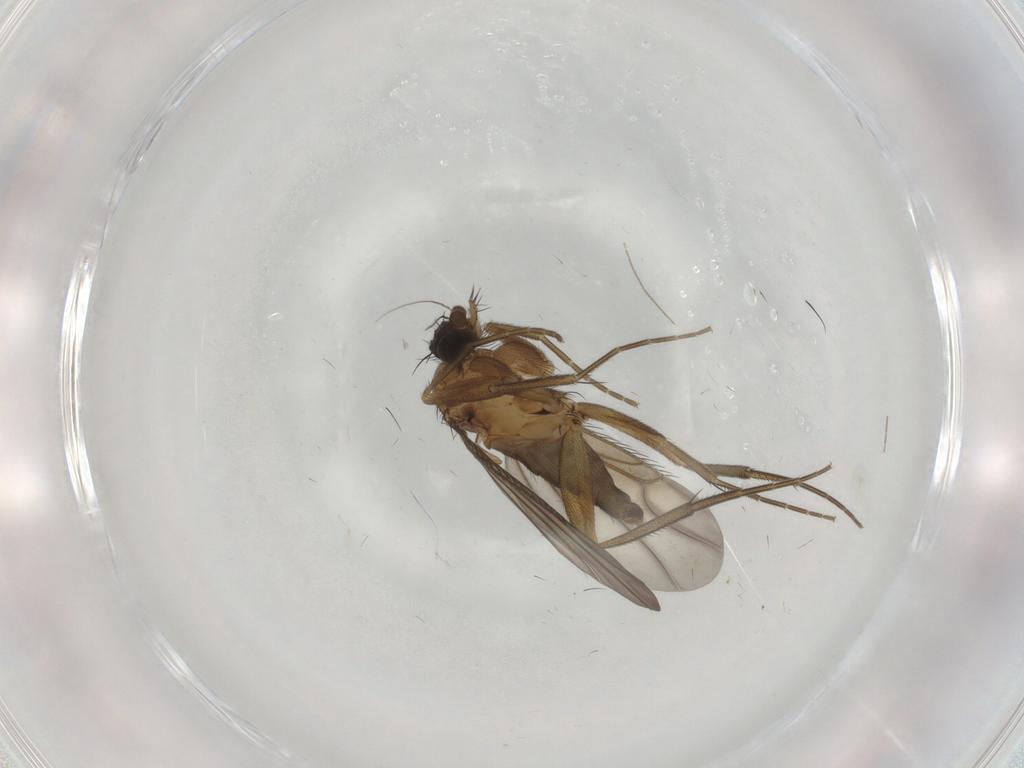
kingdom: Animalia
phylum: Arthropoda
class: Insecta
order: Diptera
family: Phoridae
